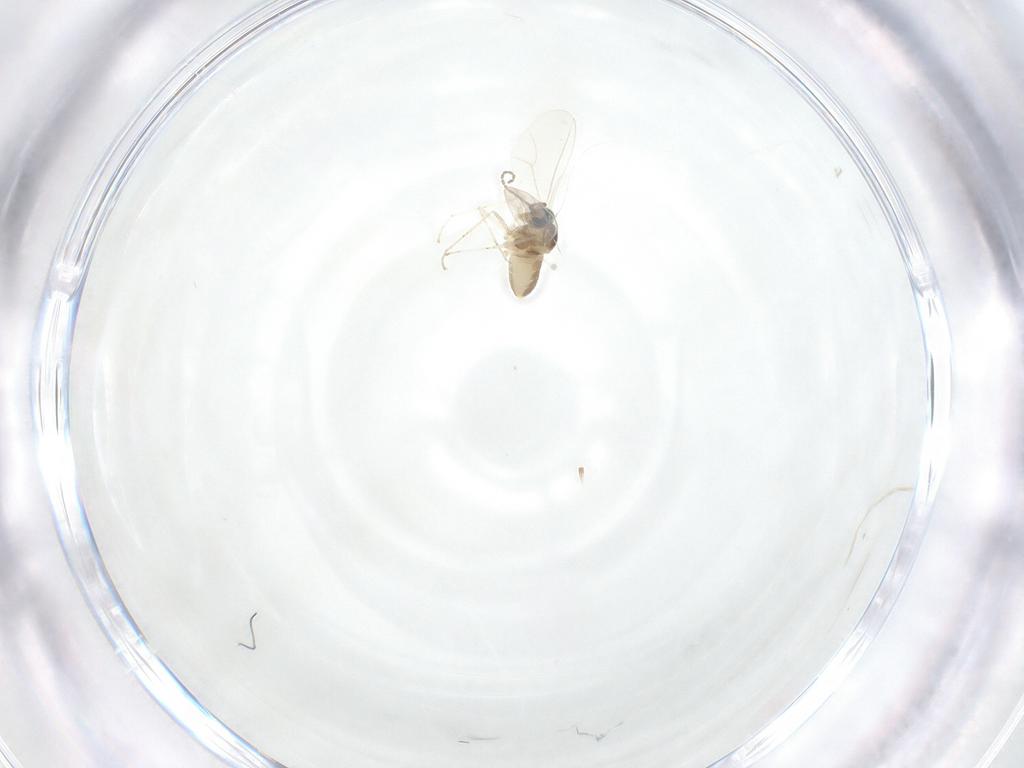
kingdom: Animalia
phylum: Arthropoda
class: Insecta
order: Diptera
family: Cecidomyiidae
